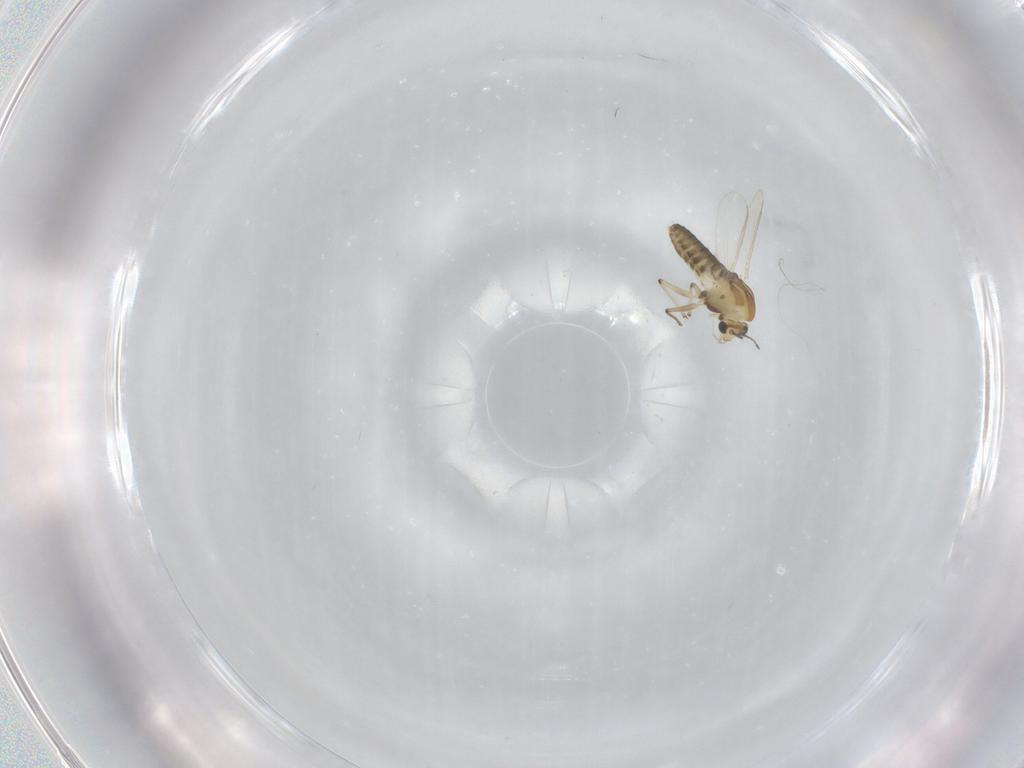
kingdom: Animalia
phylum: Arthropoda
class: Insecta
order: Diptera
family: Chironomidae
